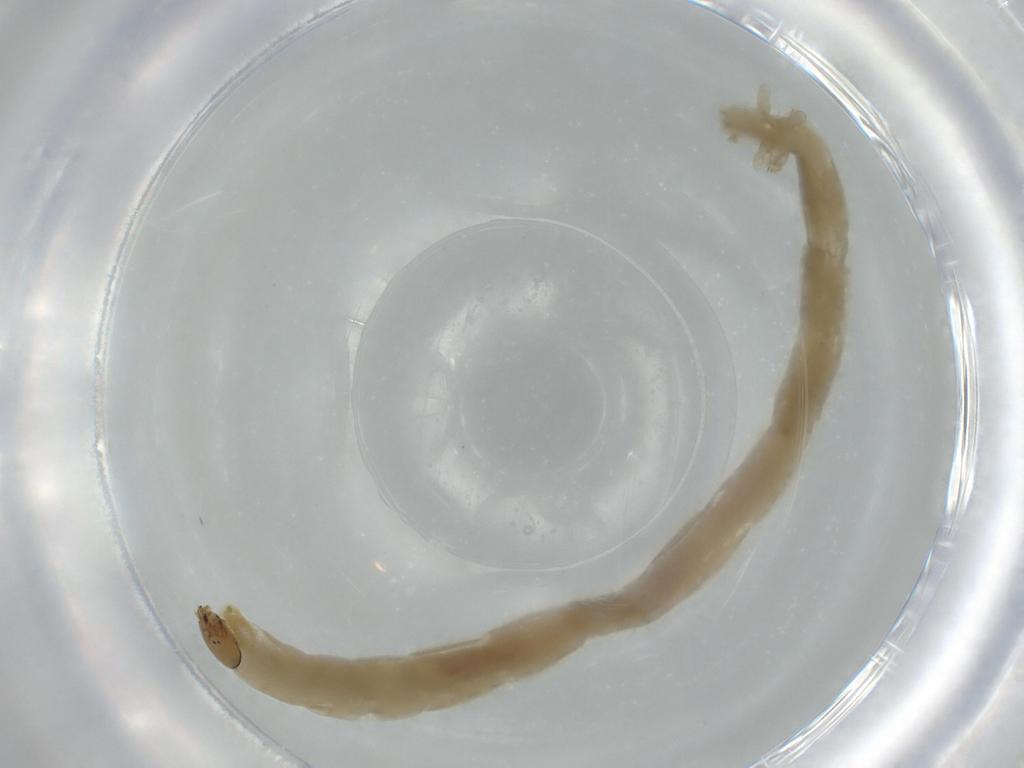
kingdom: Animalia
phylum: Arthropoda
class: Insecta
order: Diptera
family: Chironomidae
